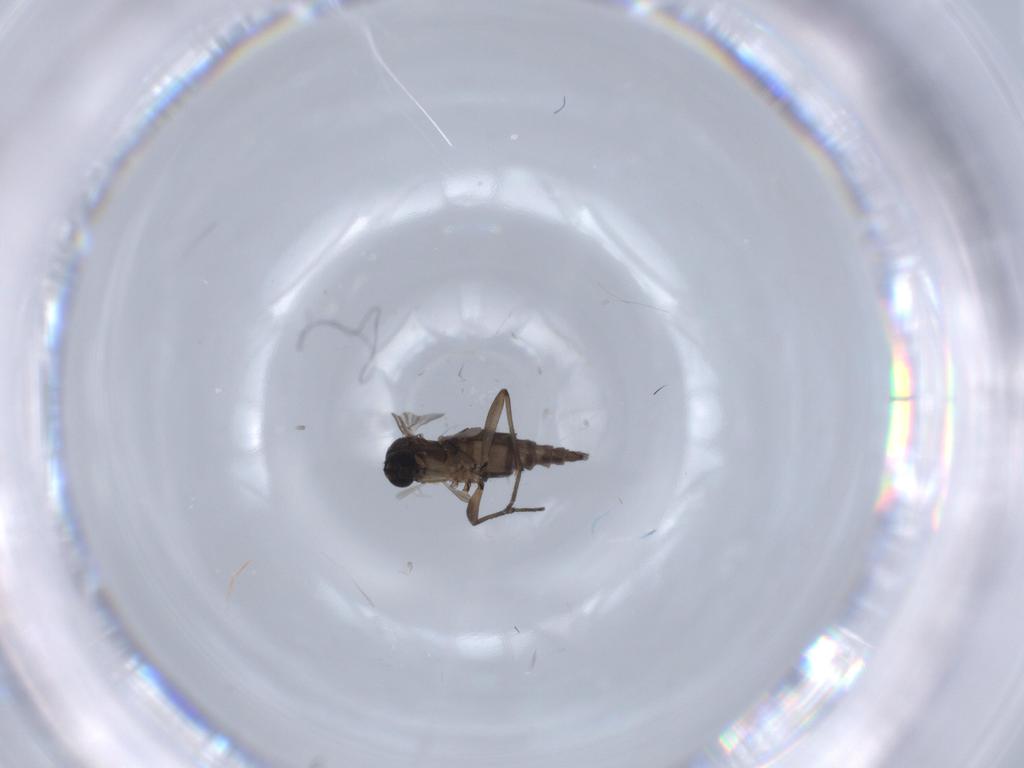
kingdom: Animalia
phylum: Arthropoda
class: Insecta
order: Diptera
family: Sciaridae
